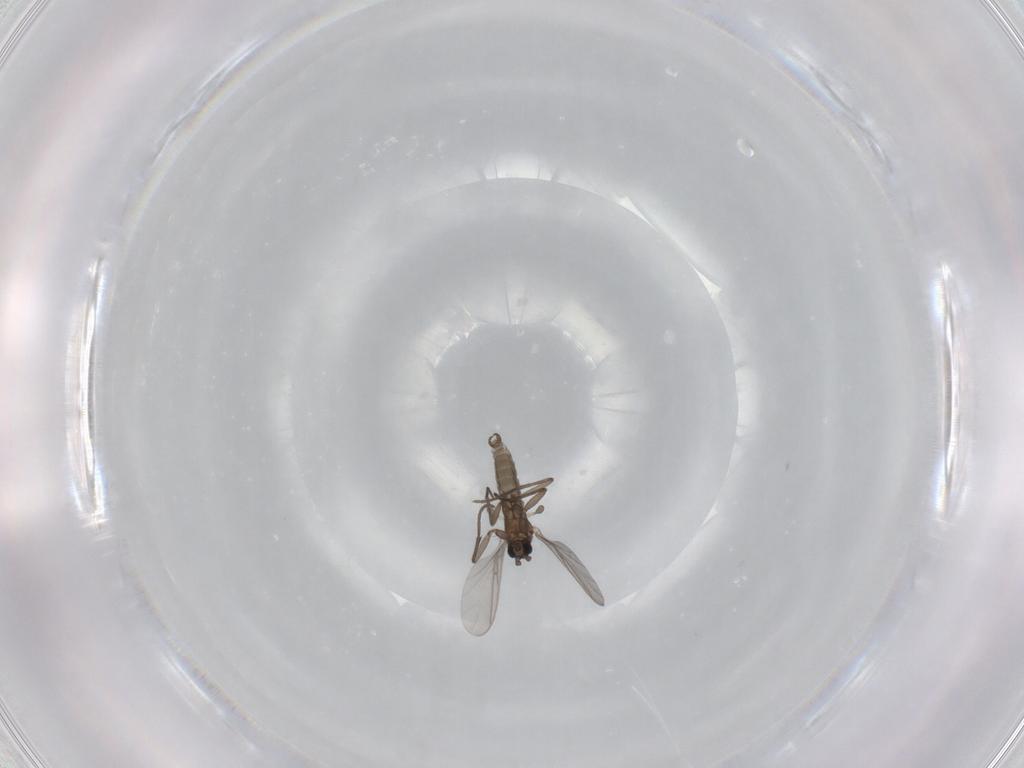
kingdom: Animalia
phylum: Arthropoda
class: Insecta
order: Diptera
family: Sciaridae
